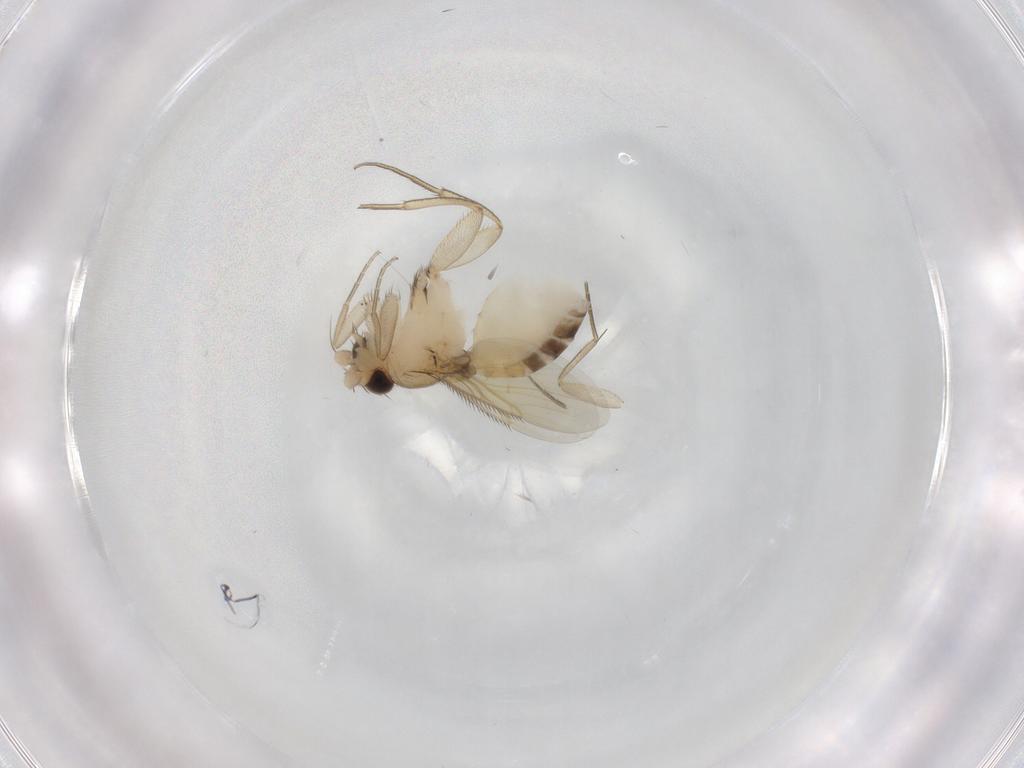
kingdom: Animalia
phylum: Arthropoda
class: Insecta
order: Diptera
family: Phoridae
